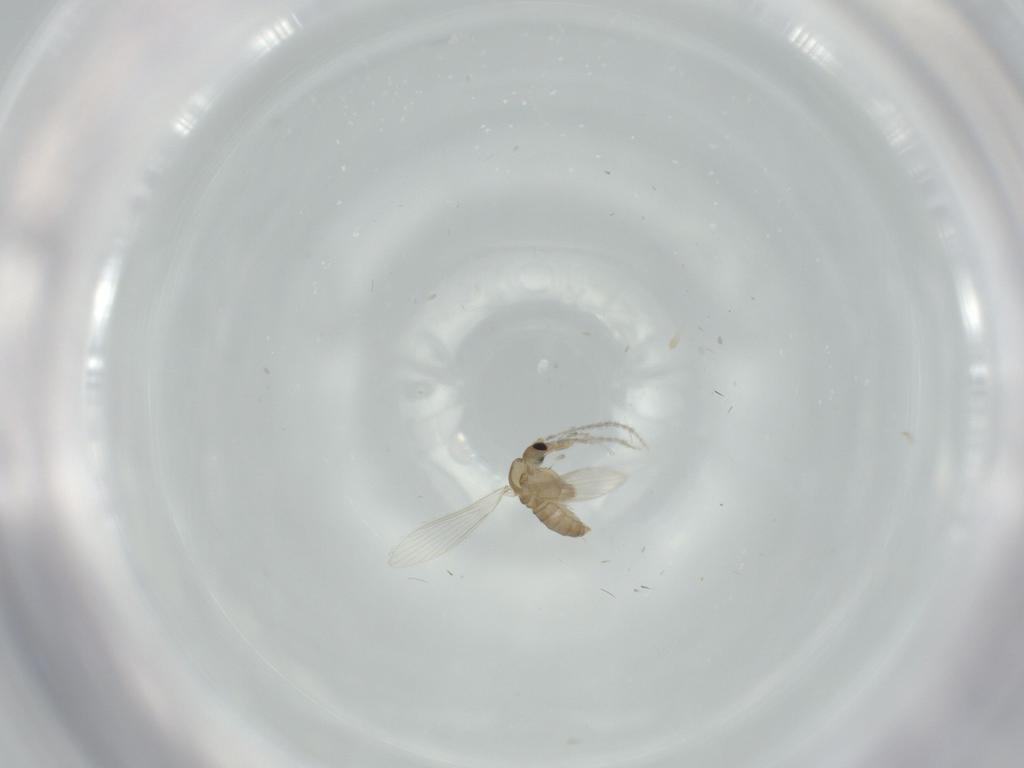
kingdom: Animalia
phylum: Arthropoda
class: Insecta
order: Diptera
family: Psychodidae
